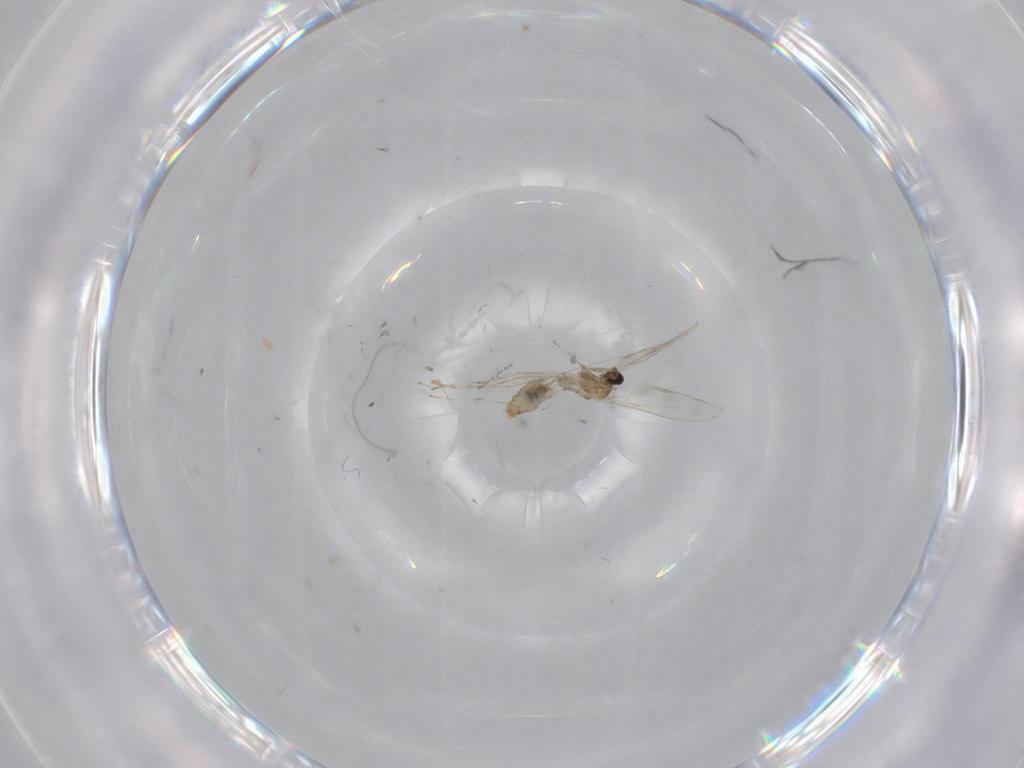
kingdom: Animalia
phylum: Arthropoda
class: Insecta
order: Diptera
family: Cecidomyiidae
